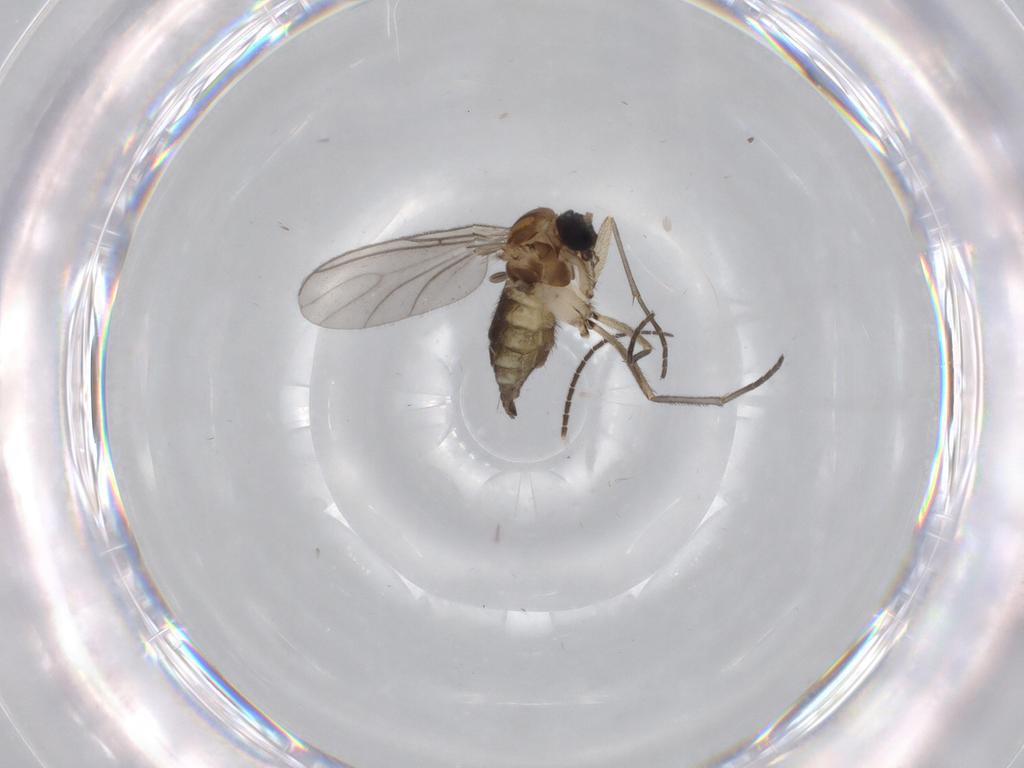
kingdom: Animalia
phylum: Arthropoda
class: Insecta
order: Diptera
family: Sciaridae
